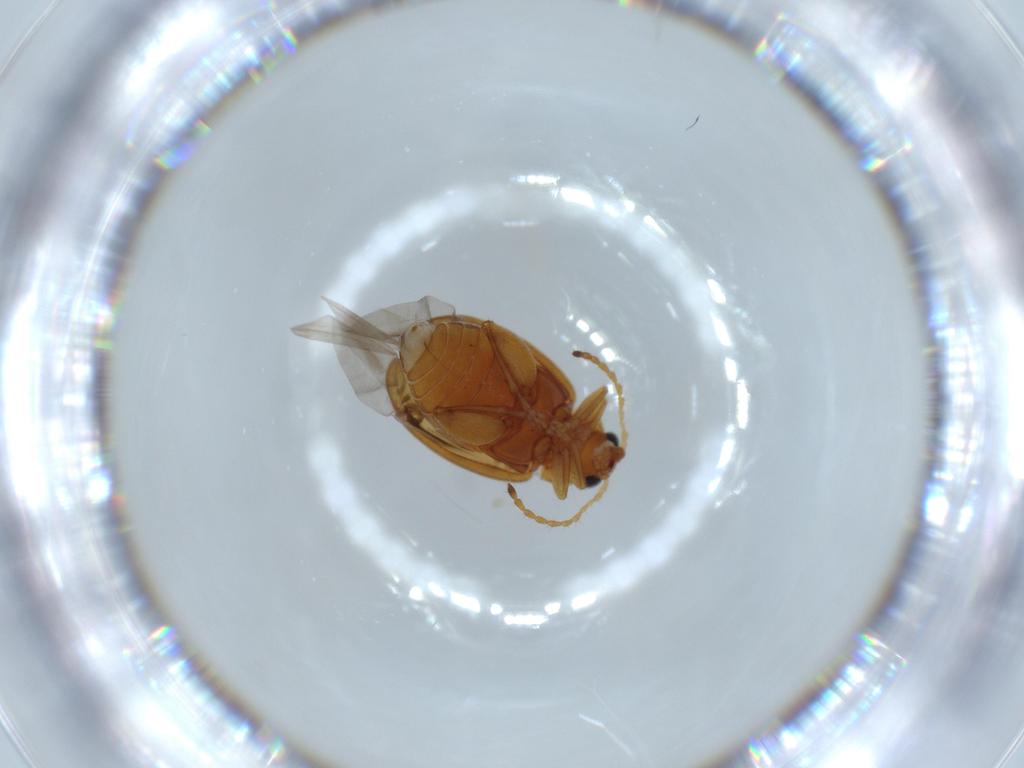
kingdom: Animalia
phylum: Arthropoda
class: Insecta
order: Coleoptera
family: Chrysomelidae
